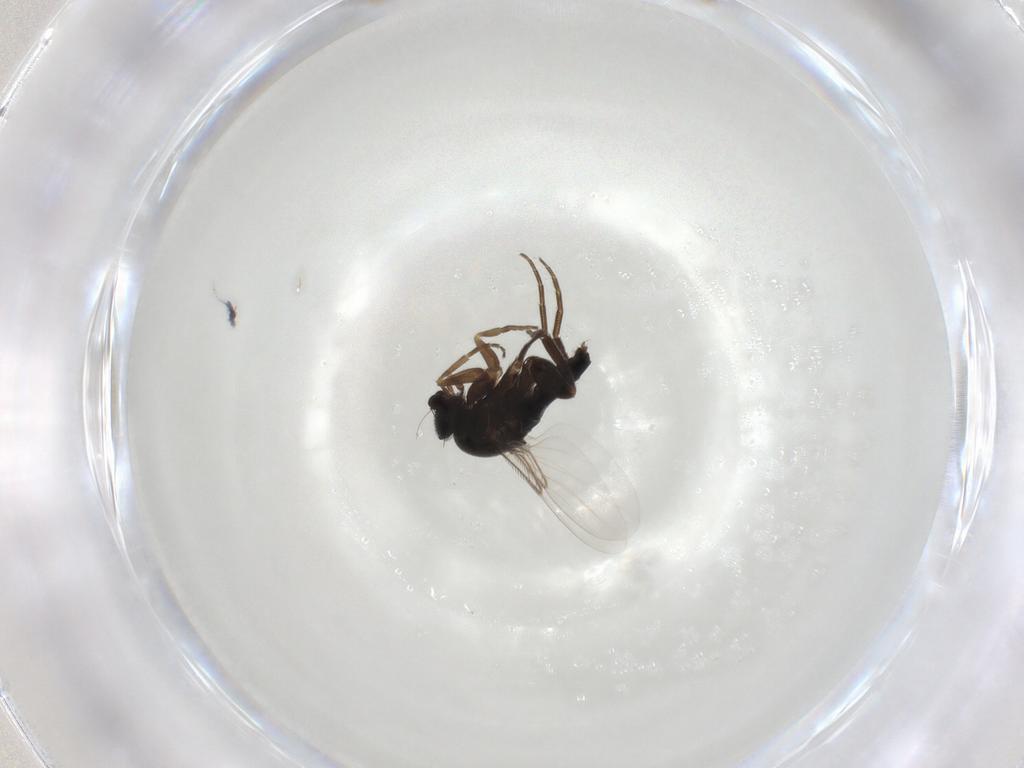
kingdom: Animalia
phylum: Arthropoda
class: Insecta
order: Diptera
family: Phoridae
